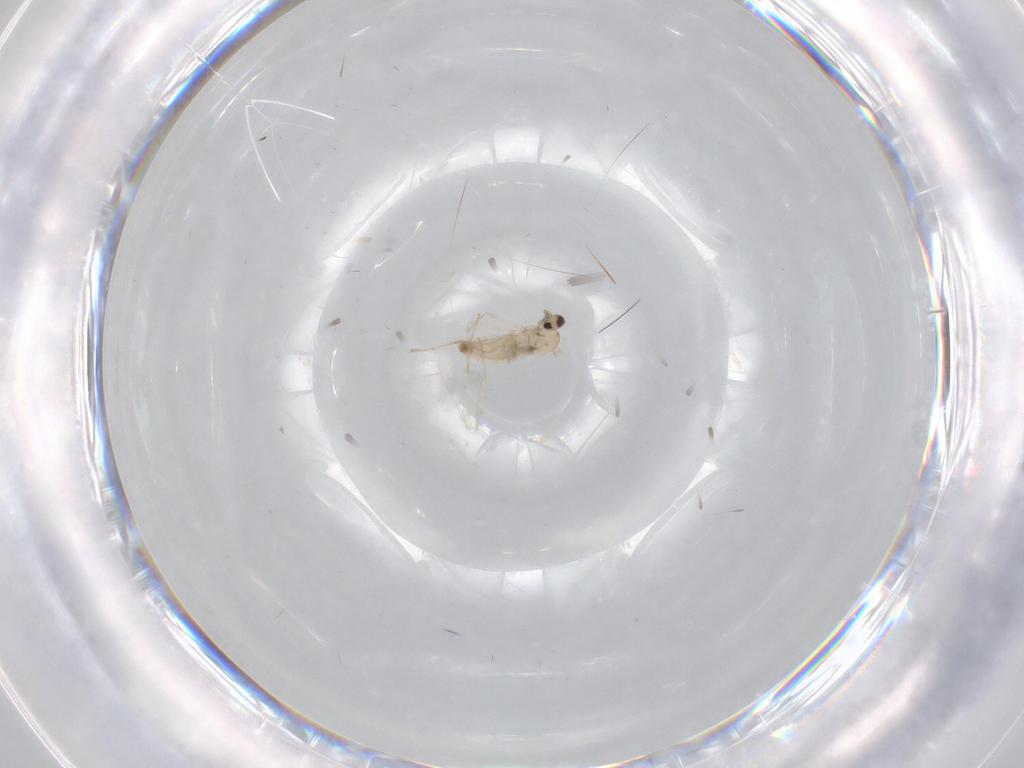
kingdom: Animalia
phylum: Arthropoda
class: Insecta
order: Diptera
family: Cecidomyiidae
